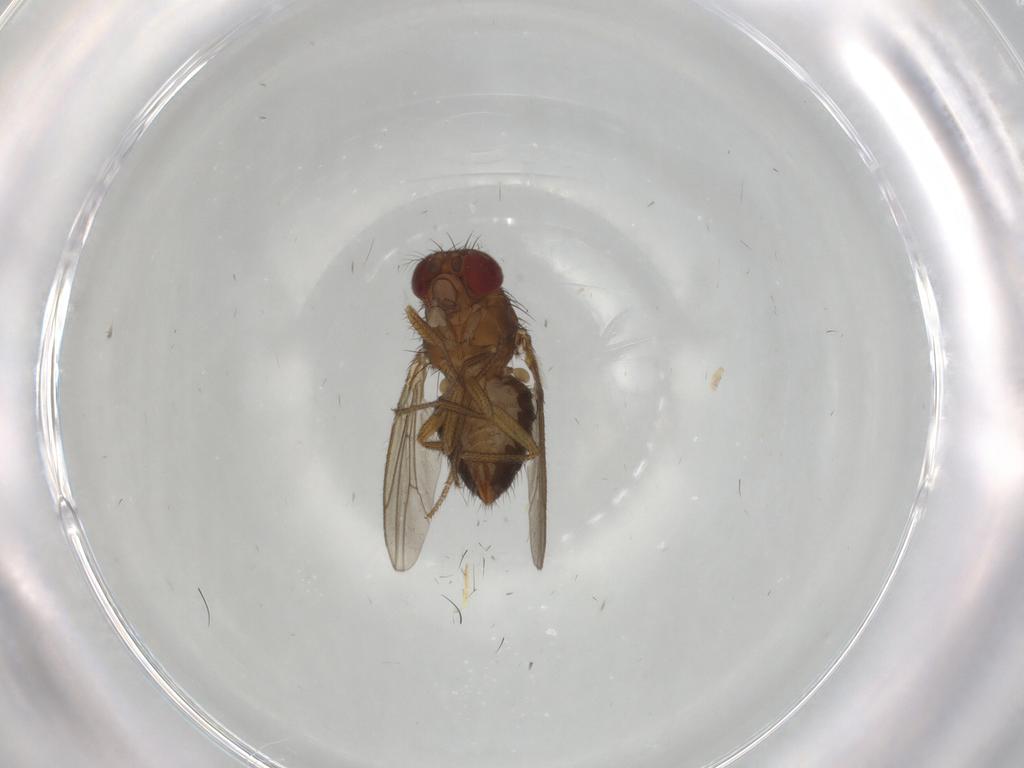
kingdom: Animalia
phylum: Arthropoda
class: Insecta
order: Diptera
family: Drosophilidae
